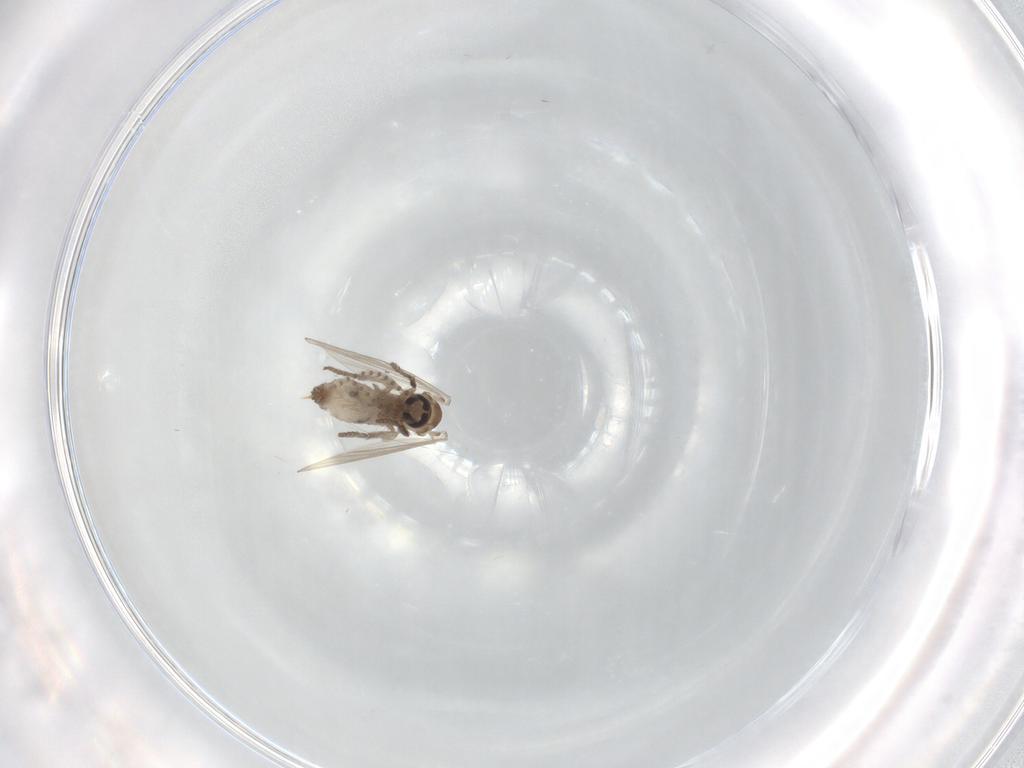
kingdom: Animalia
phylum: Arthropoda
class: Insecta
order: Diptera
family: Psychodidae
